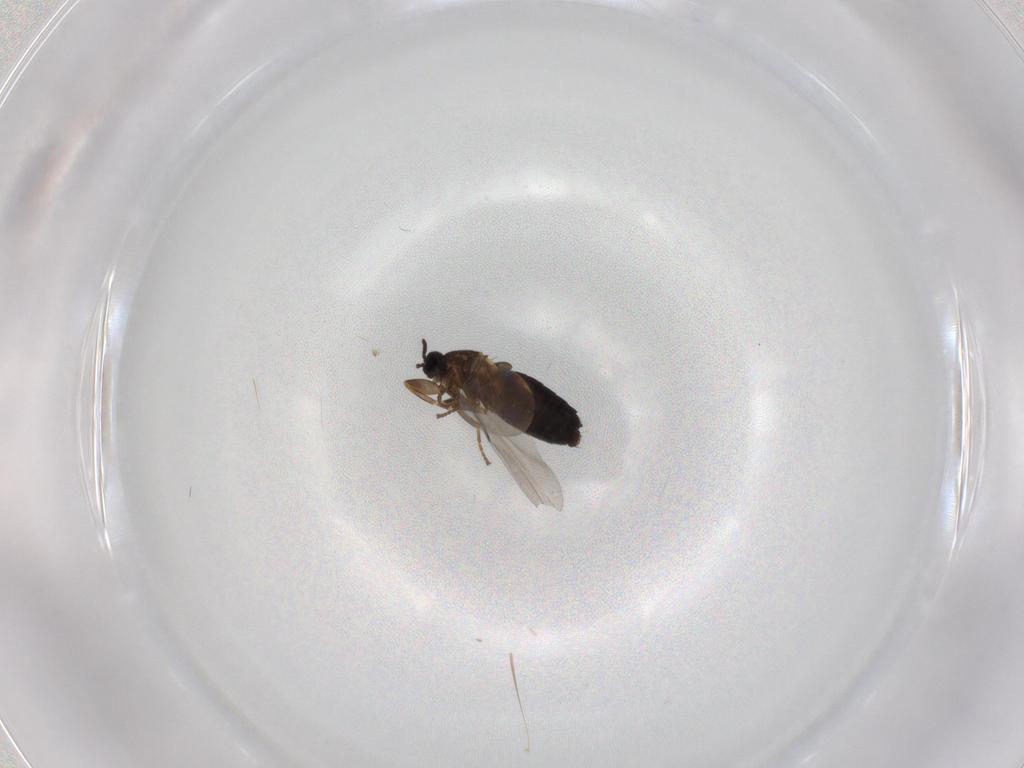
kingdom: Animalia
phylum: Arthropoda
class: Insecta
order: Diptera
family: Scatopsidae
